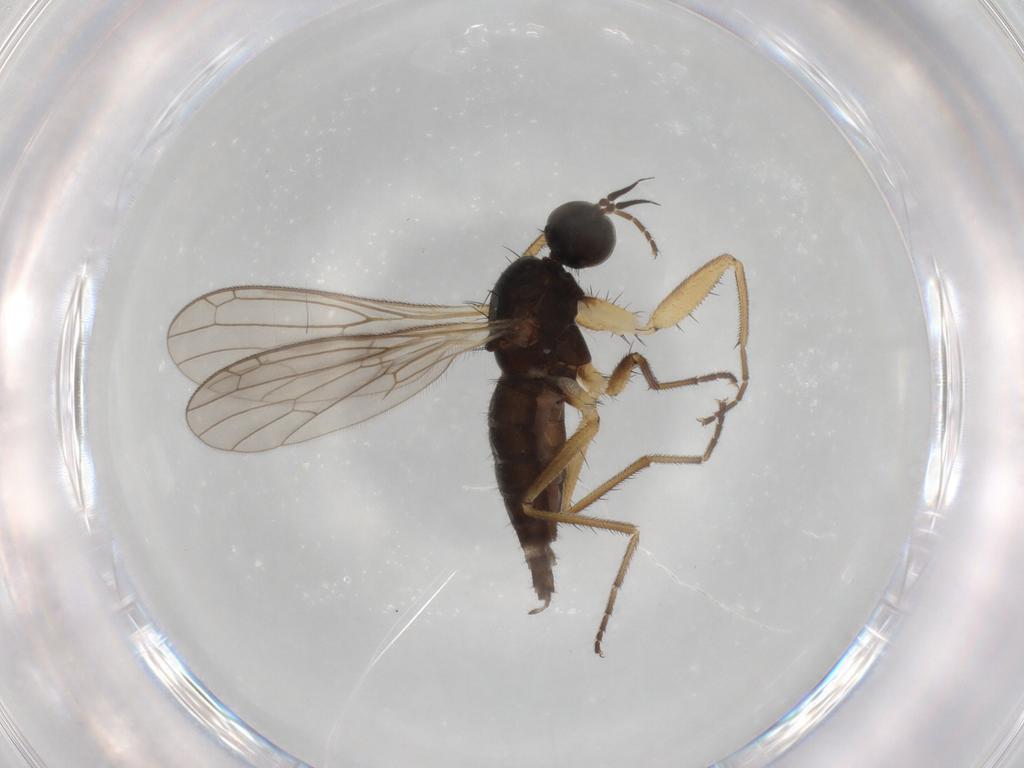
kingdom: Animalia
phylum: Arthropoda
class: Insecta
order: Diptera
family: Empididae
